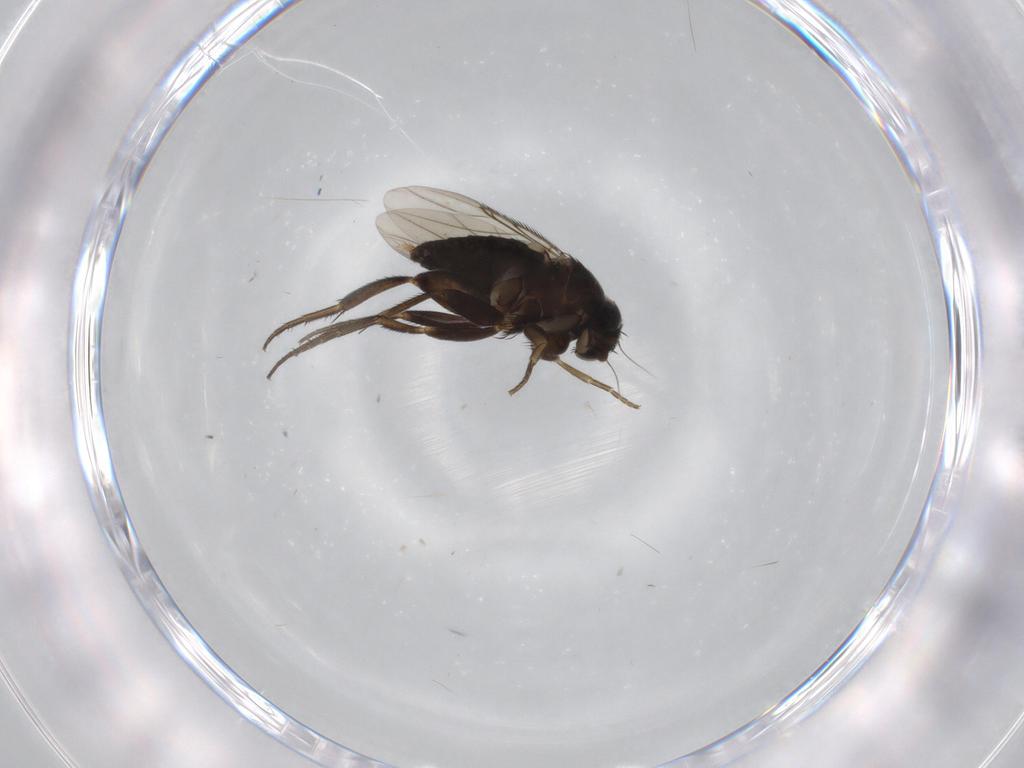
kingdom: Animalia
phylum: Arthropoda
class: Insecta
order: Diptera
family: Phoridae
